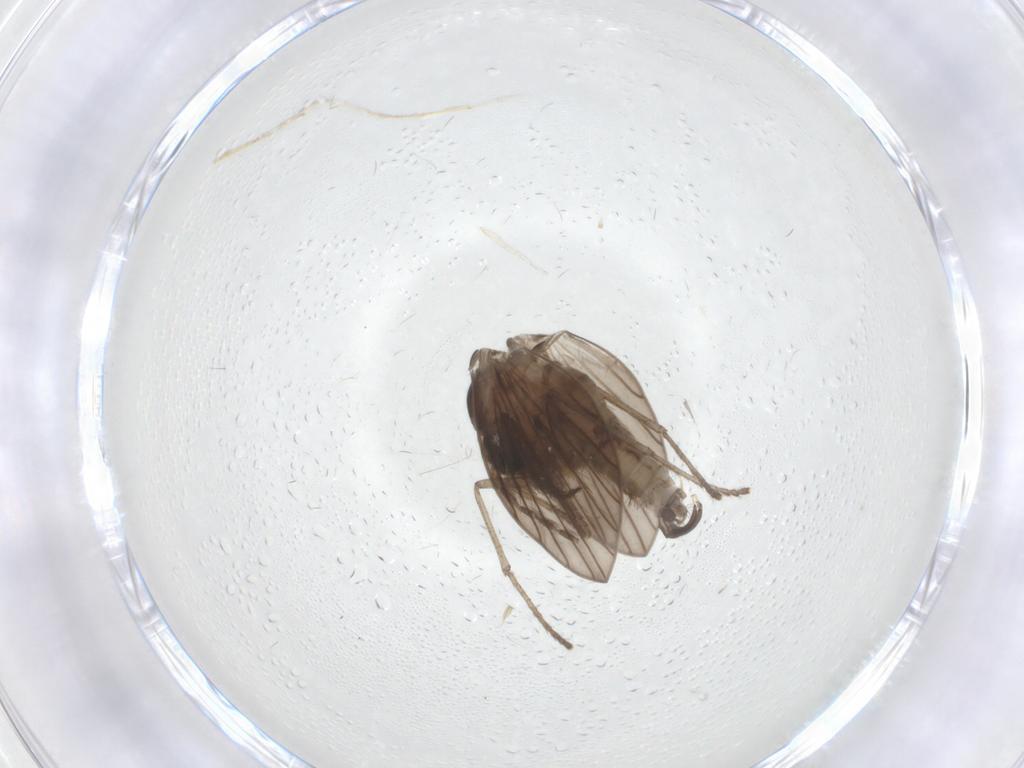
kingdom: Animalia
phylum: Arthropoda
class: Insecta
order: Diptera
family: Psychodidae
